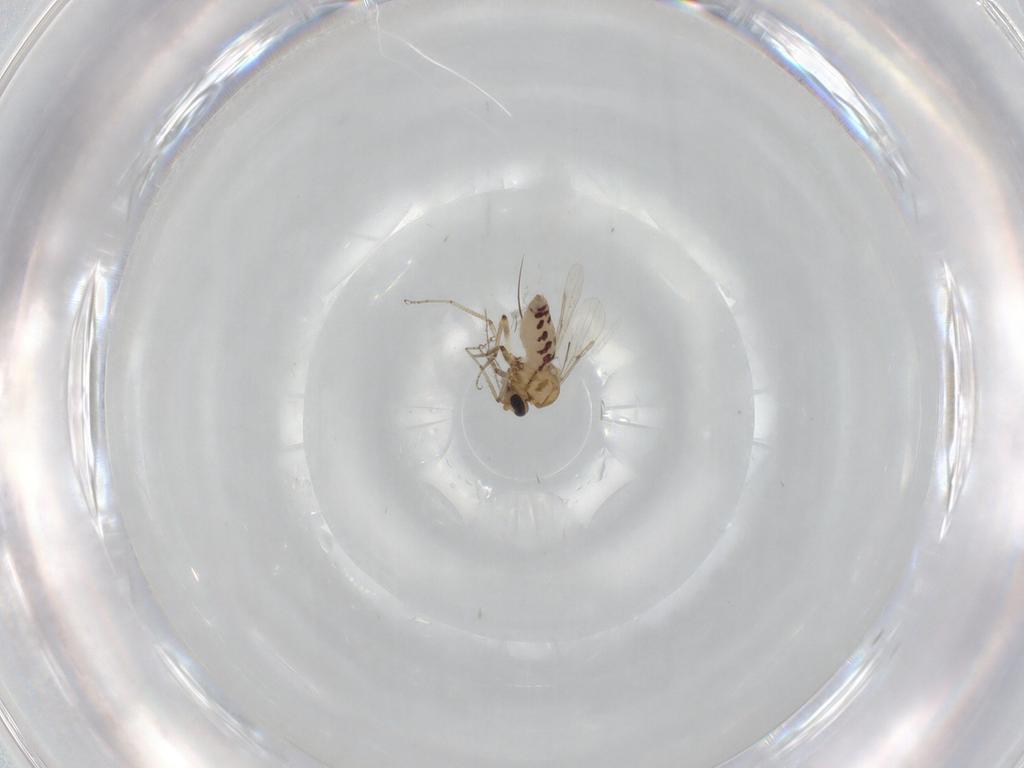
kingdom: Animalia
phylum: Arthropoda
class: Insecta
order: Diptera
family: Ceratopogonidae
